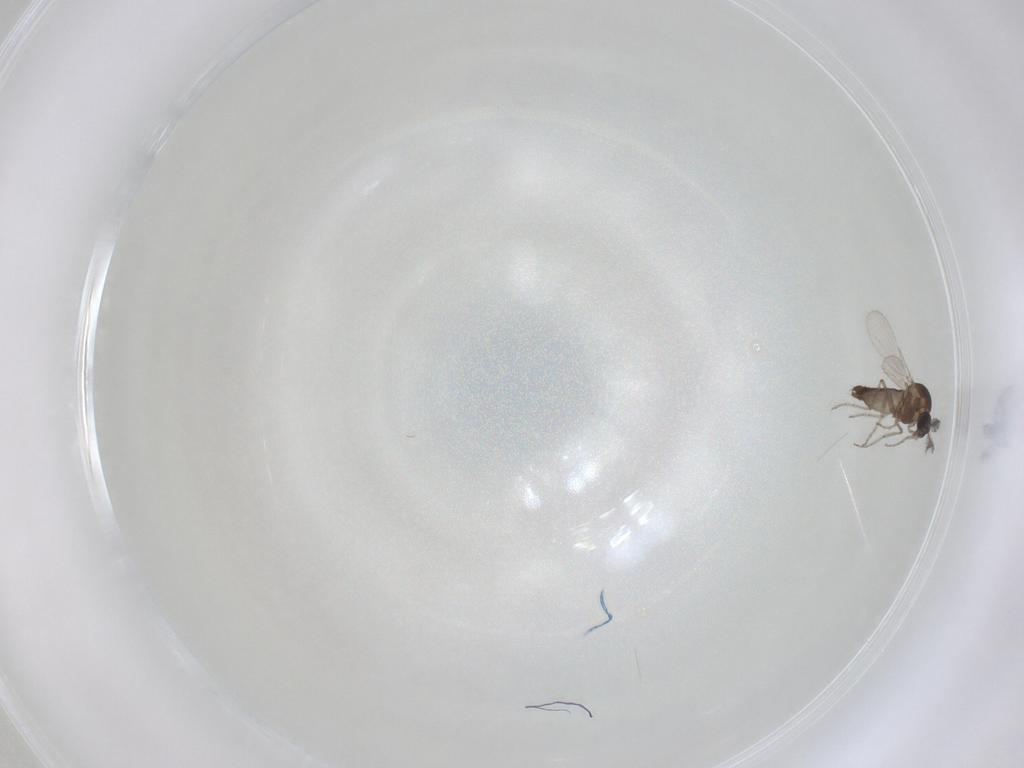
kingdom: Animalia
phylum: Arthropoda
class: Insecta
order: Diptera
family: Ceratopogonidae
